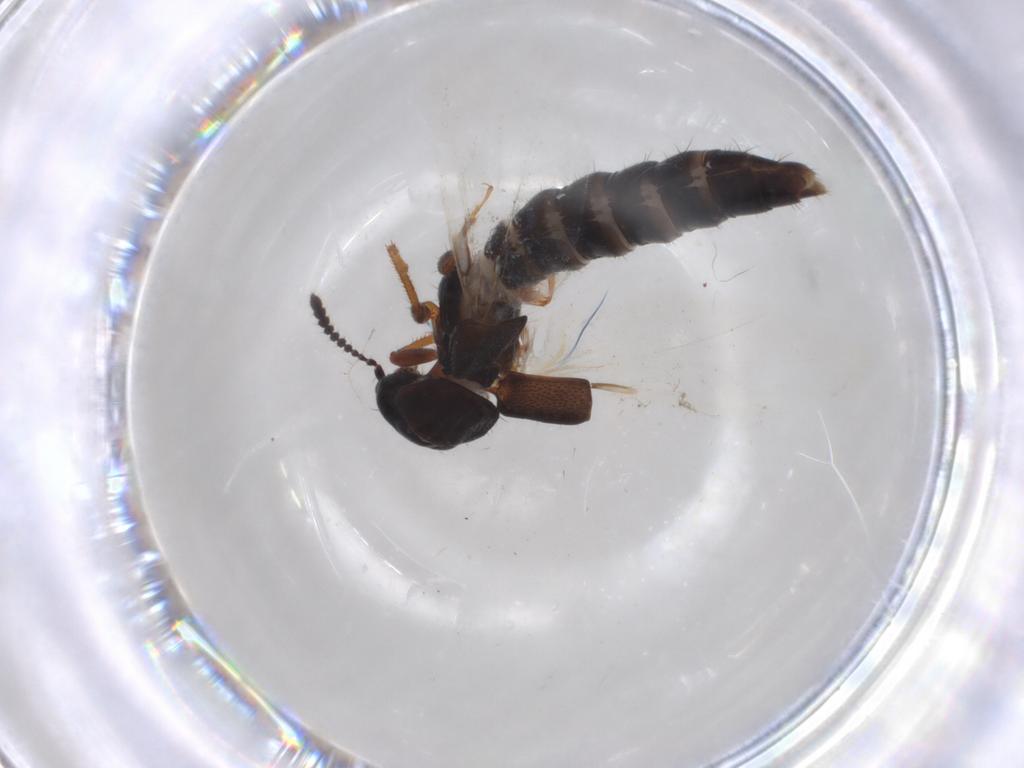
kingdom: Animalia
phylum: Arthropoda
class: Insecta
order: Coleoptera
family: Staphylinidae
